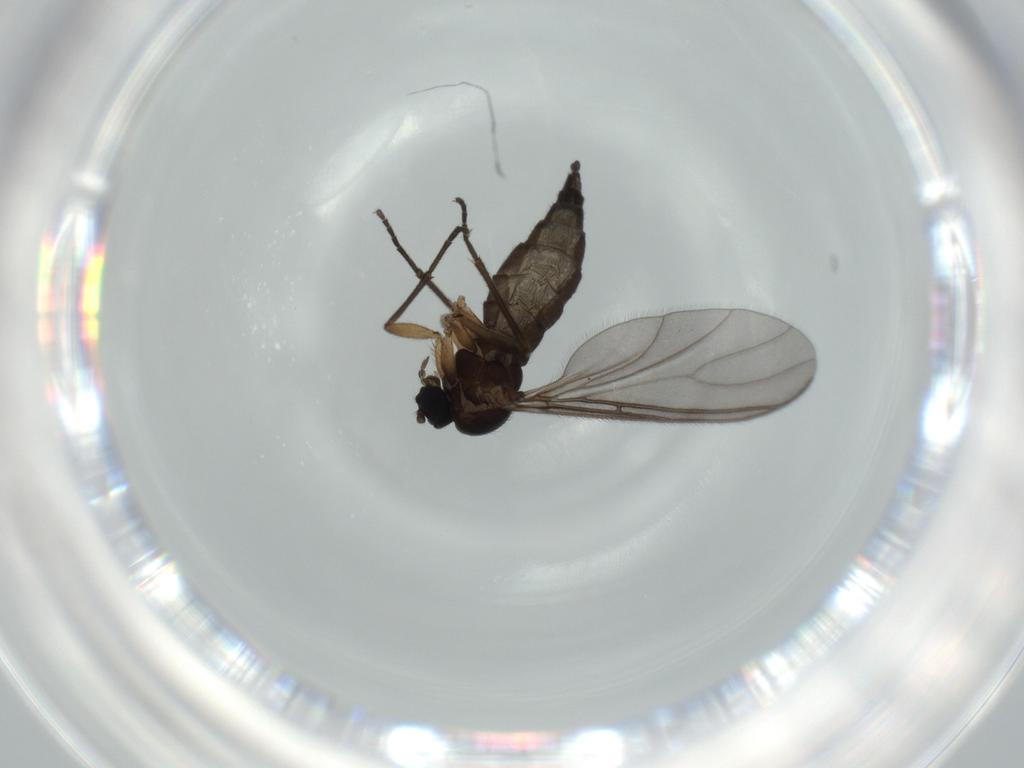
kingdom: Animalia
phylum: Arthropoda
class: Insecta
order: Diptera
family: Sciaridae
